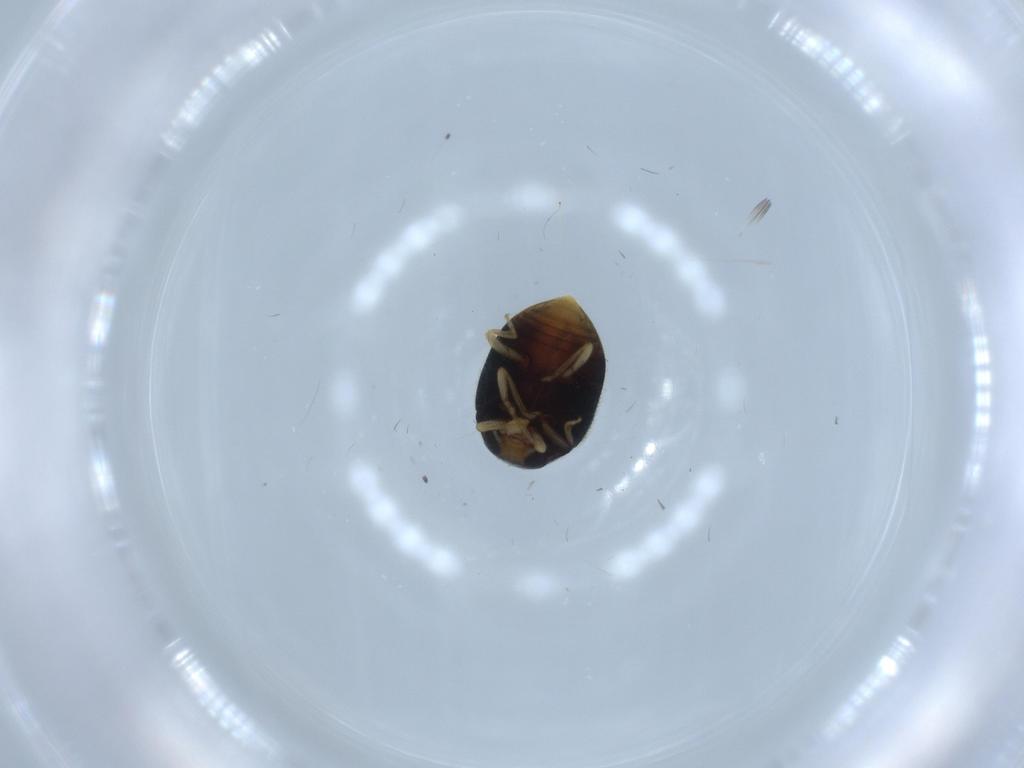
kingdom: Animalia
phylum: Arthropoda
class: Insecta
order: Coleoptera
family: Coccinellidae
